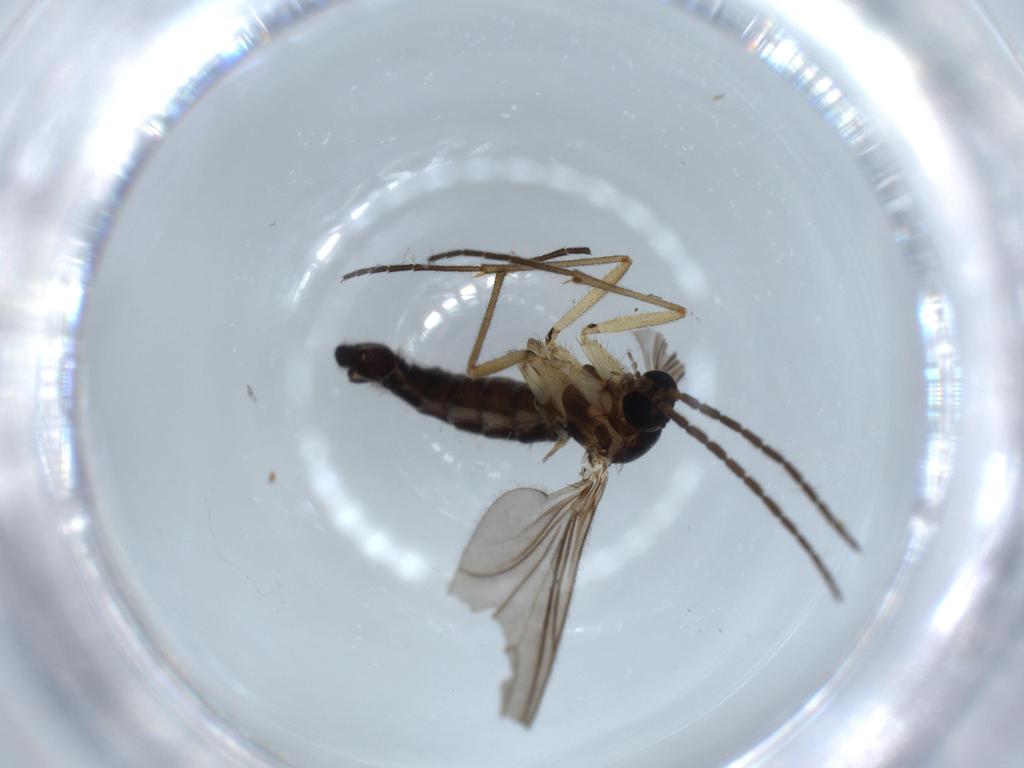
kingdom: Animalia
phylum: Arthropoda
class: Insecta
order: Diptera
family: Sciaridae
